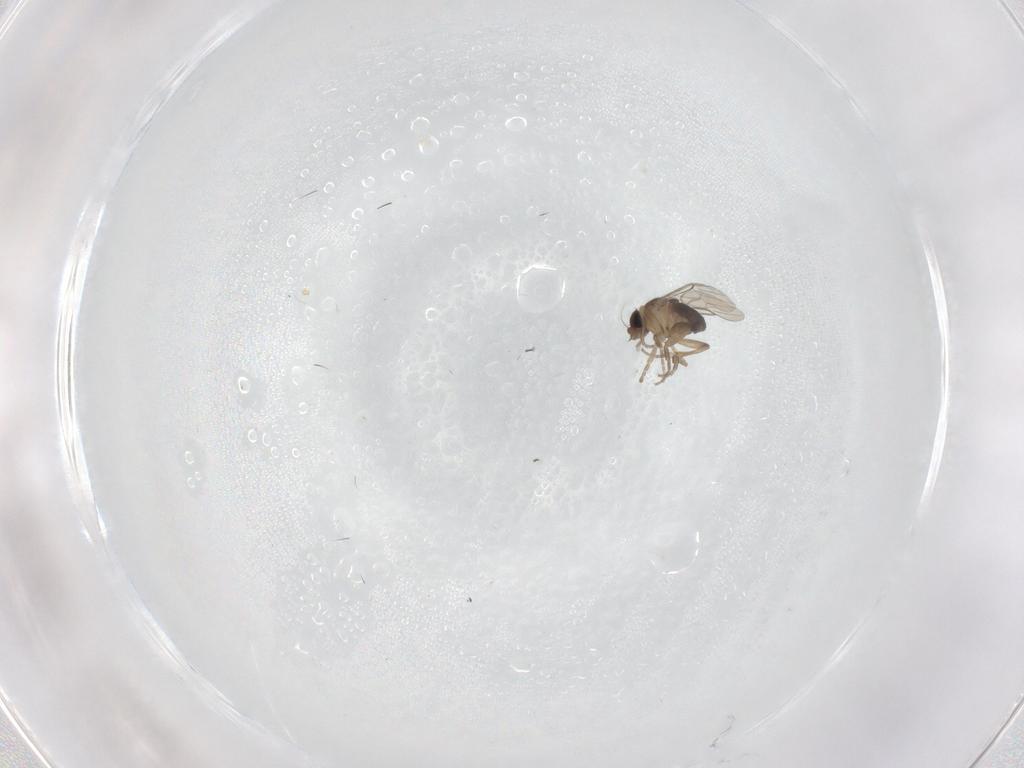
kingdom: Animalia
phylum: Arthropoda
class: Insecta
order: Diptera
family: Phoridae
